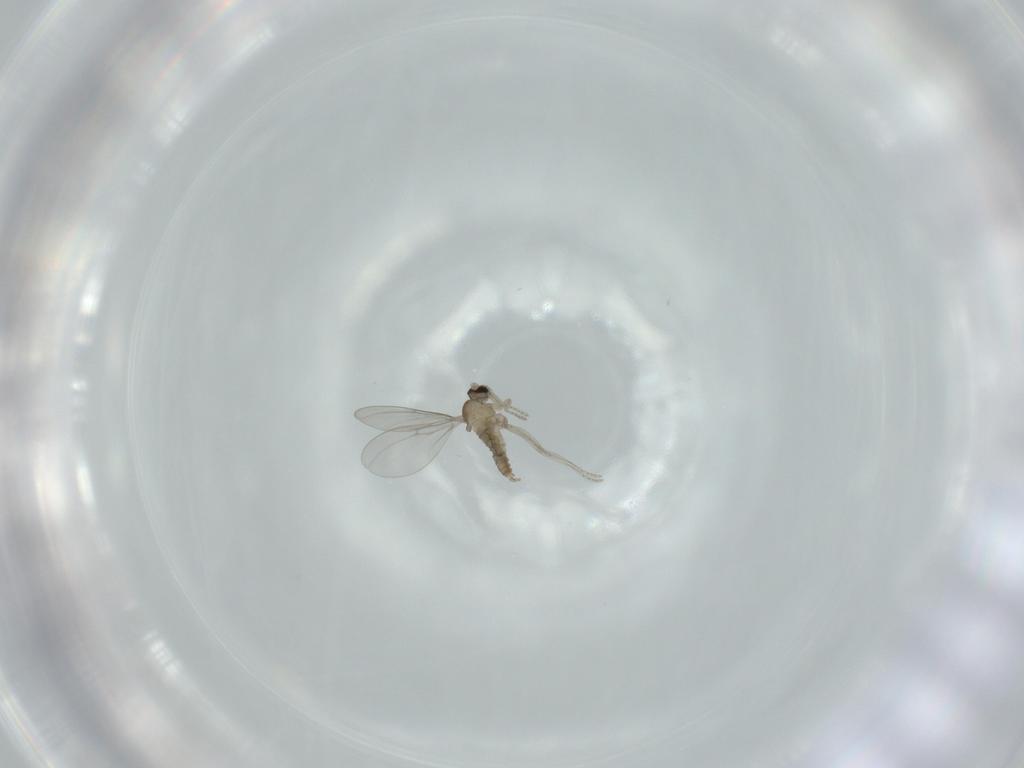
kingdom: Animalia
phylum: Arthropoda
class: Insecta
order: Diptera
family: Cecidomyiidae
